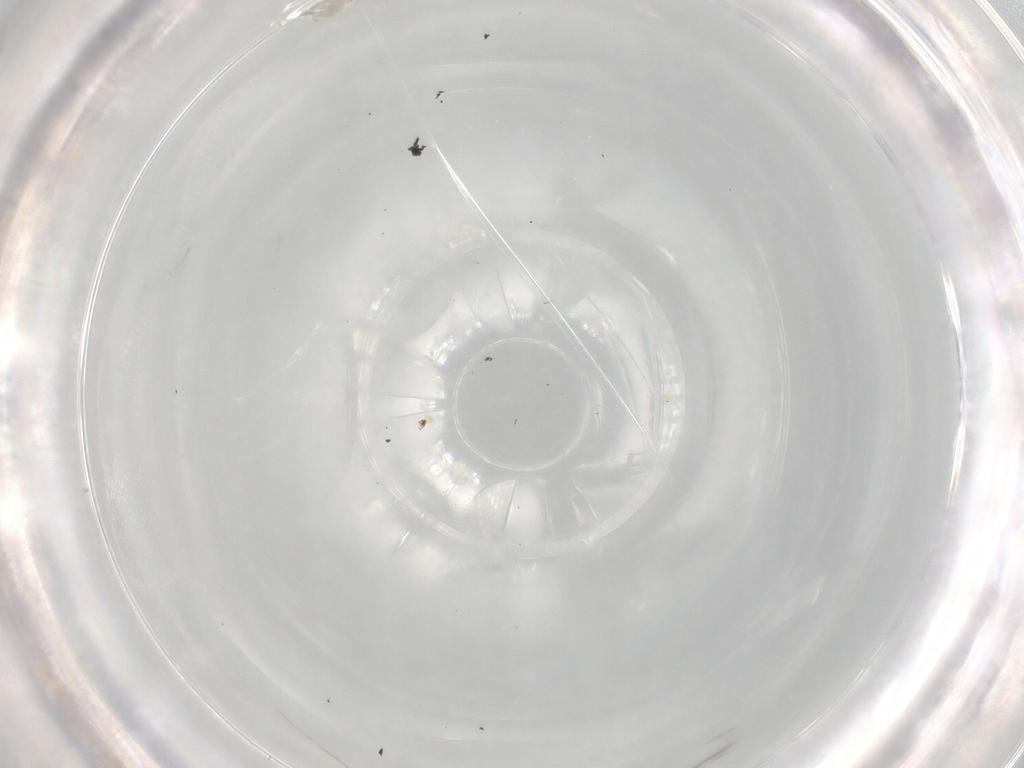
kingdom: Animalia
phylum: Arthropoda
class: Insecta
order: Diptera
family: Ulidiidae
